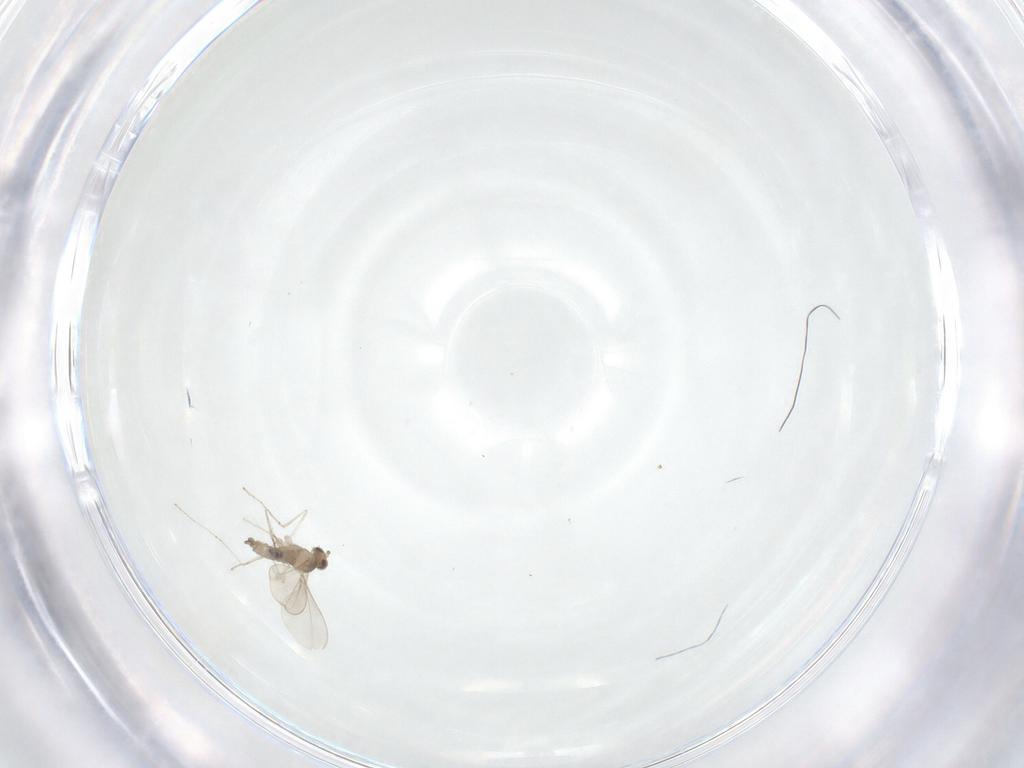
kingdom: Animalia
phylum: Arthropoda
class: Insecta
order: Diptera
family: Cecidomyiidae
